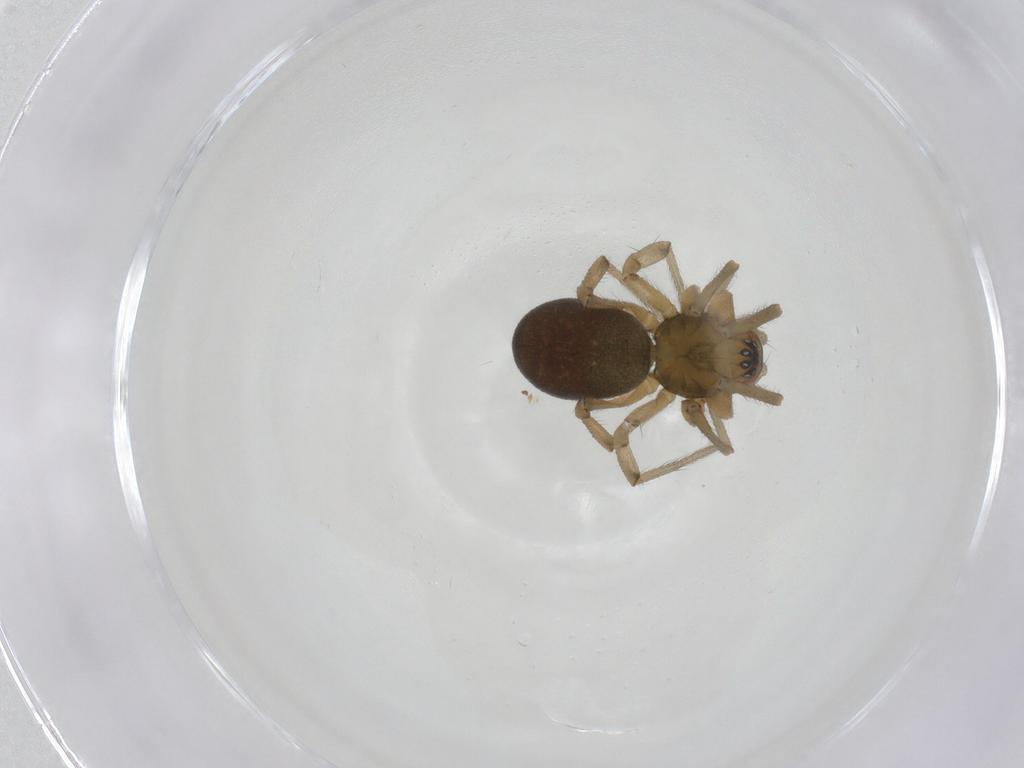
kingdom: Animalia
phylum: Arthropoda
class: Arachnida
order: Araneae
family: Linyphiidae
